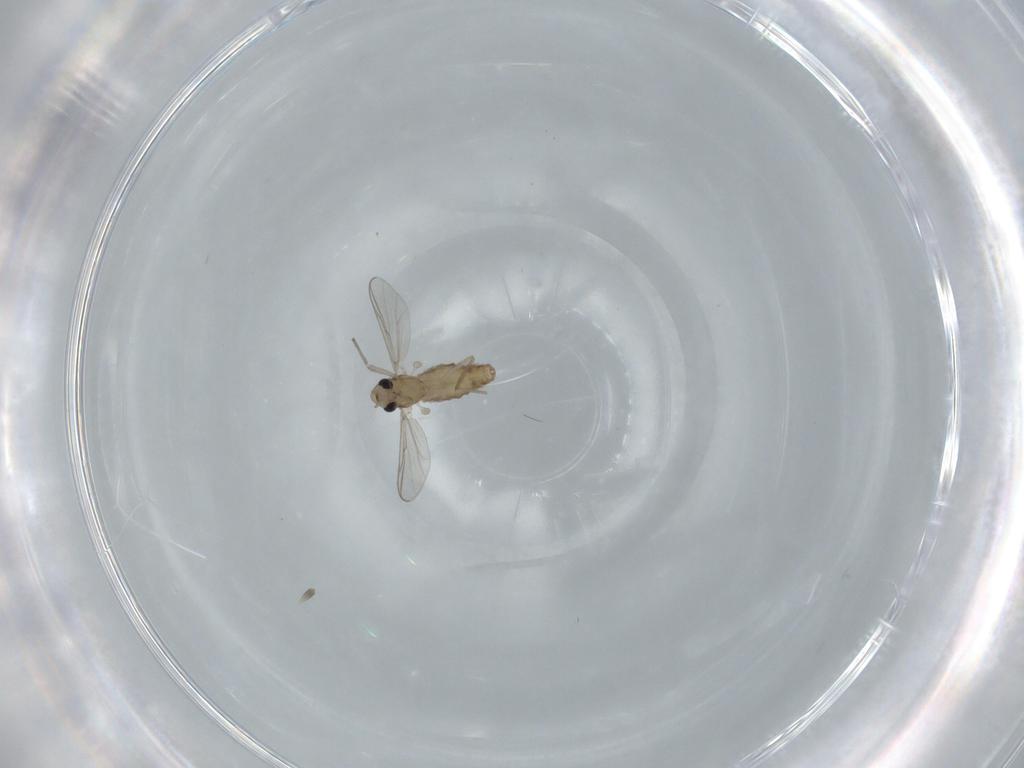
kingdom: Animalia
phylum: Arthropoda
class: Insecta
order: Diptera
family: Chironomidae
